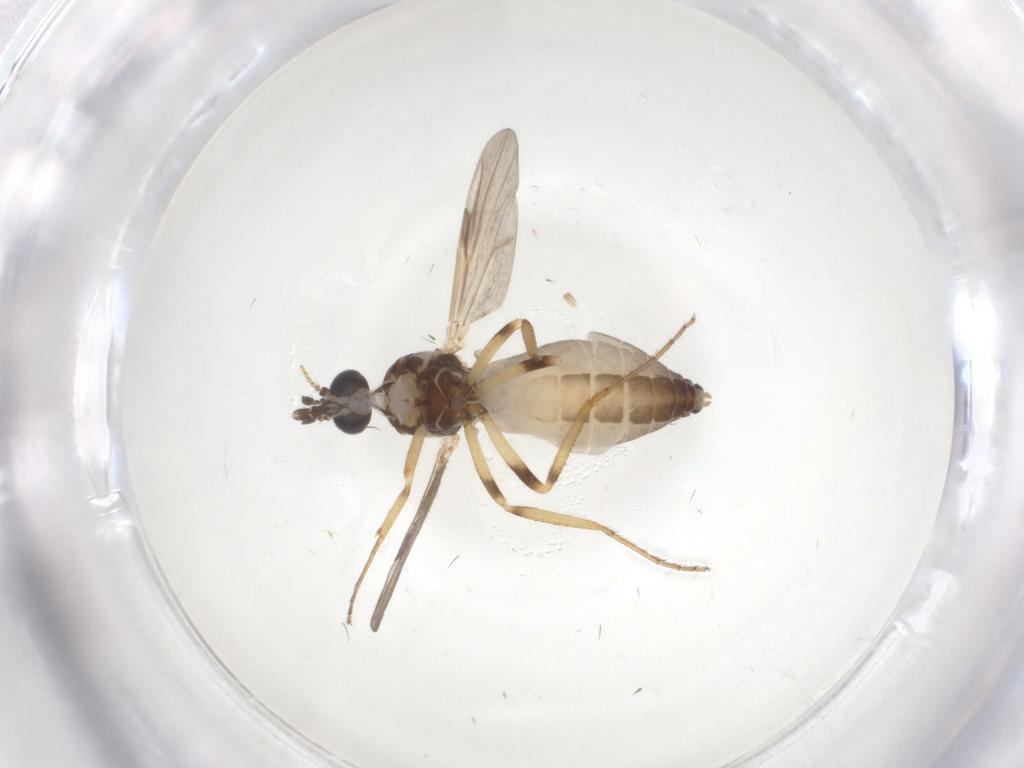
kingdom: Animalia
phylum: Arthropoda
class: Insecta
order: Diptera
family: Ceratopogonidae
